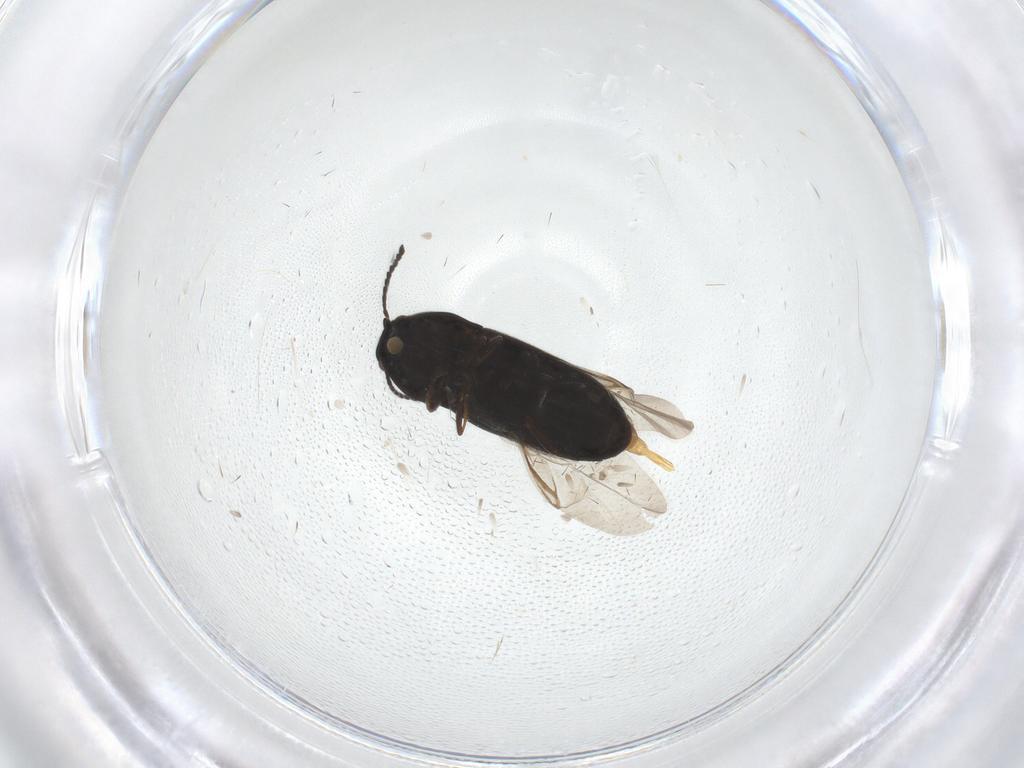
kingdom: Animalia
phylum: Arthropoda
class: Insecta
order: Coleoptera
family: Elateridae
